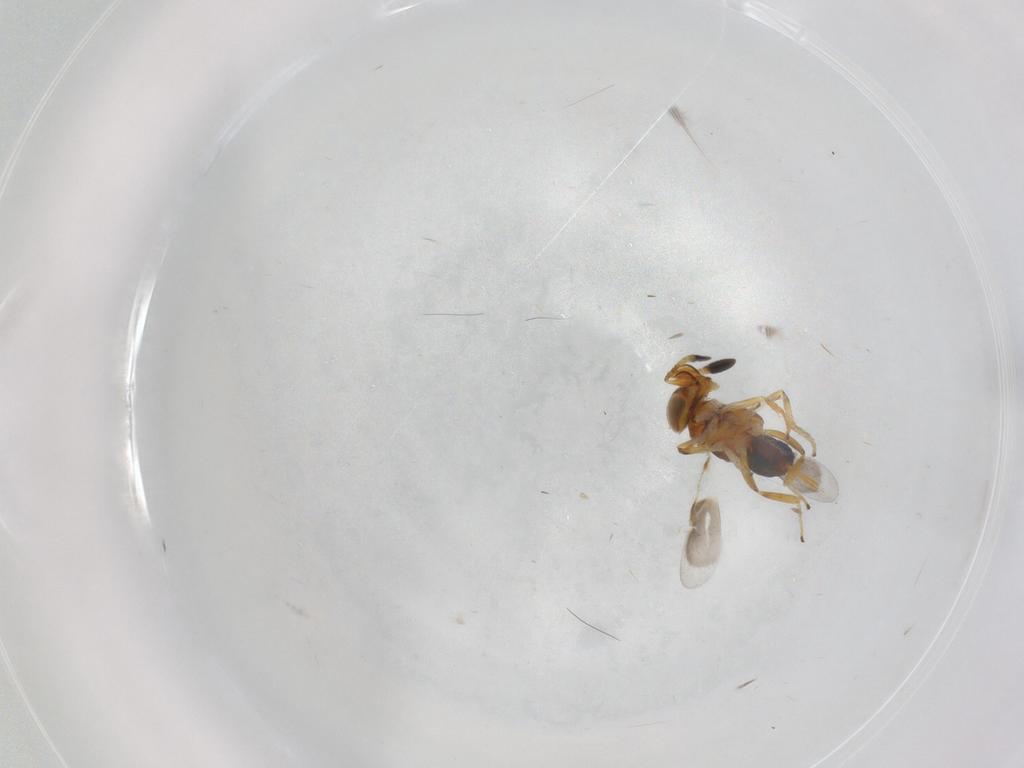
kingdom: Animalia
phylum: Arthropoda
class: Insecta
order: Hymenoptera
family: Encyrtidae
